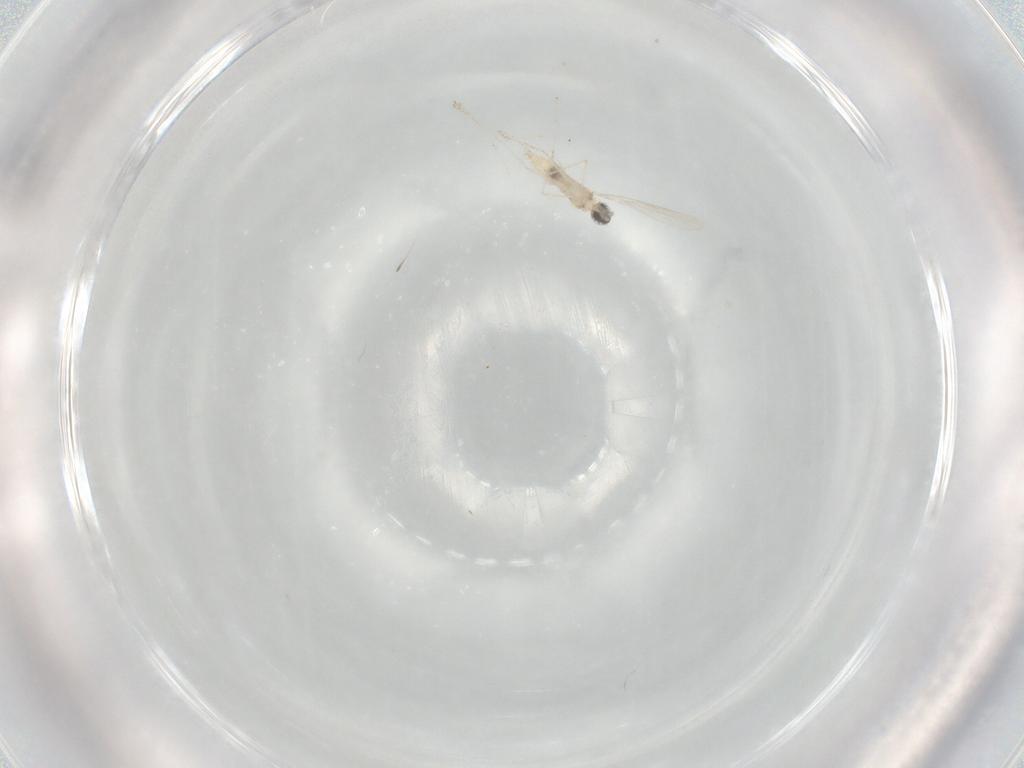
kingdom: Animalia
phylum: Arthropoda
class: Insecta
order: Diptera
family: Cecidomyiidae
